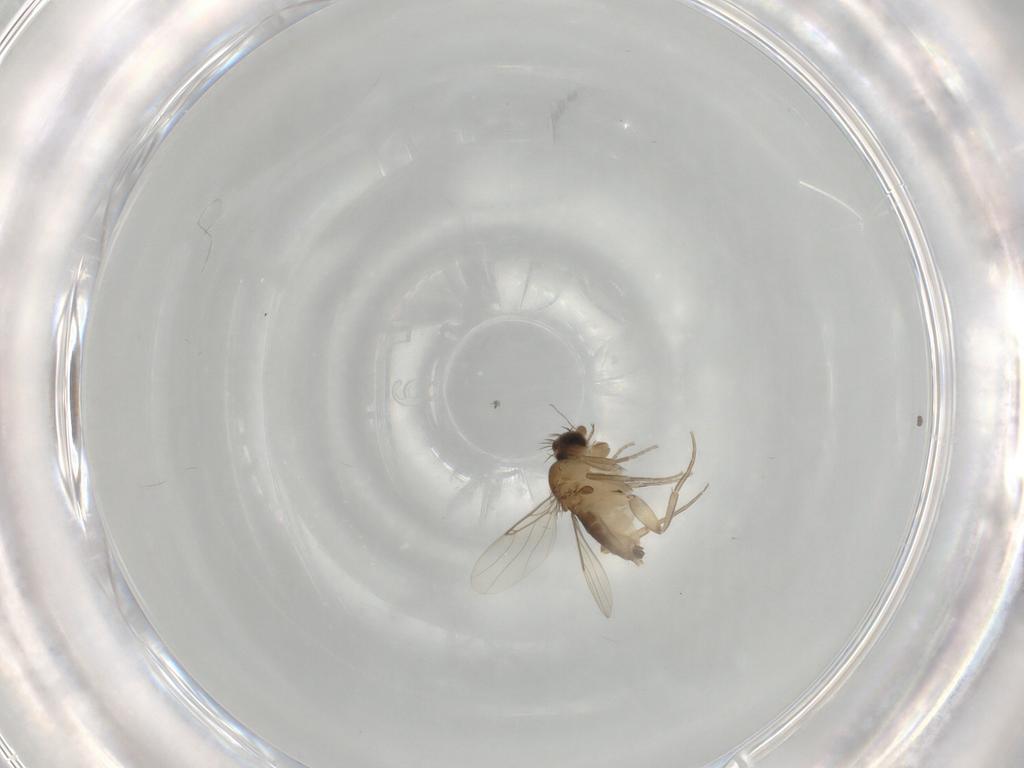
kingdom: Animalia
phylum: Arthropoda
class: Insecta
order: Diptera
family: Phoridae
